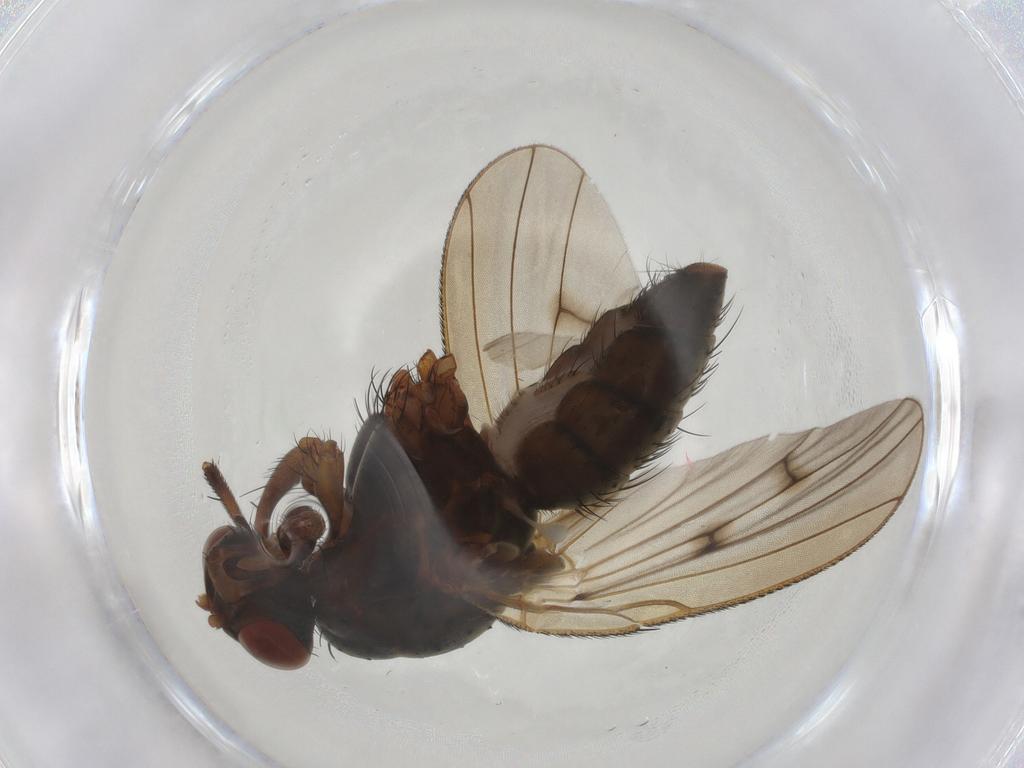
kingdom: Animalia
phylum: Arthropoda
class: Insecta
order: Diptera
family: Anthomyiidae
